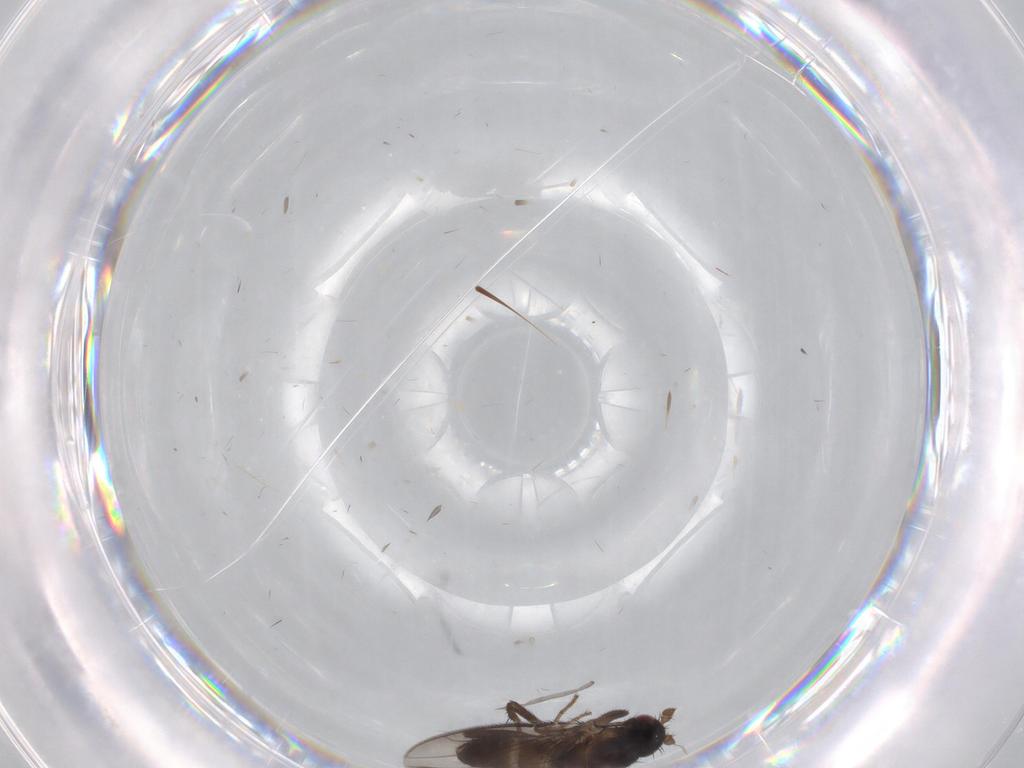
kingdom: Animalia
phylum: Arthropoda
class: Insecta
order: Diptera
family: Sphaeroceridae
